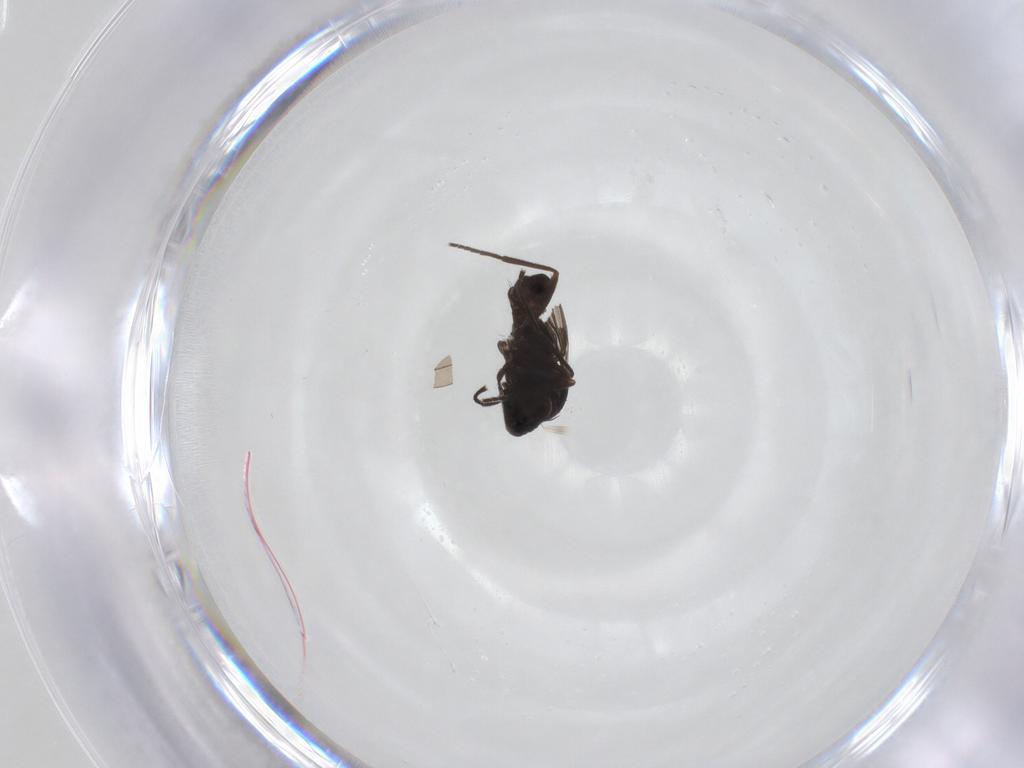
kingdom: Animalia
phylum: Arthropoda
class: Insecta
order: Diptera
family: Dolichopodidae
